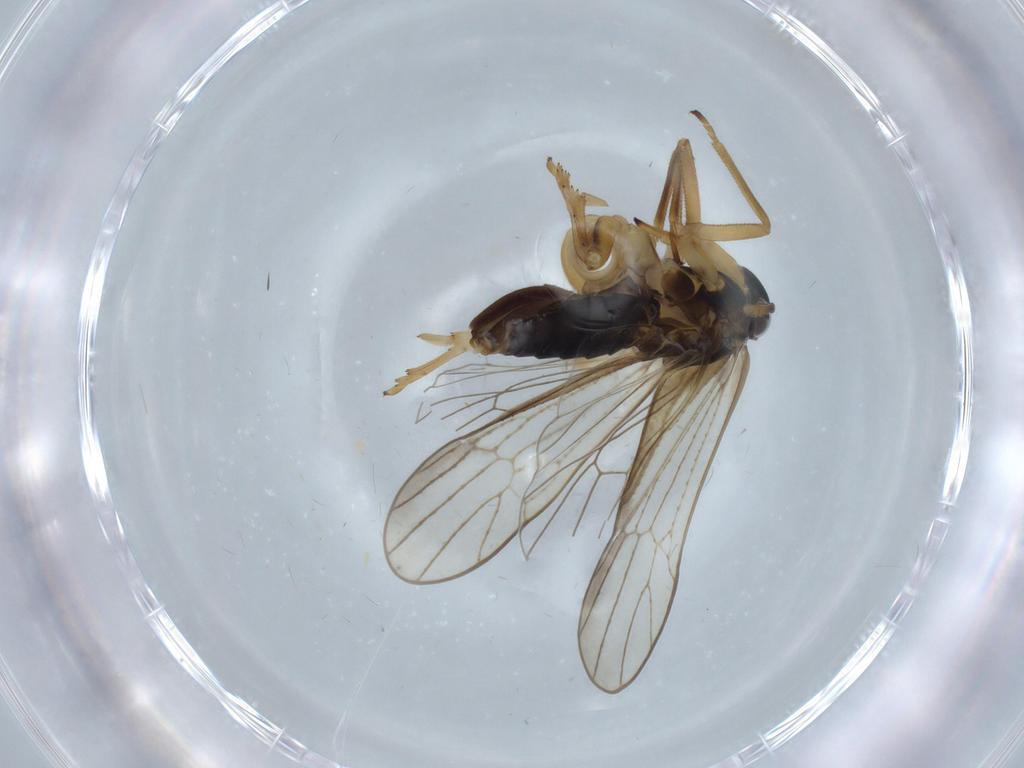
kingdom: Animalia
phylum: Arthropoda
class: Insecta
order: Hemiptera
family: Delphacidae
